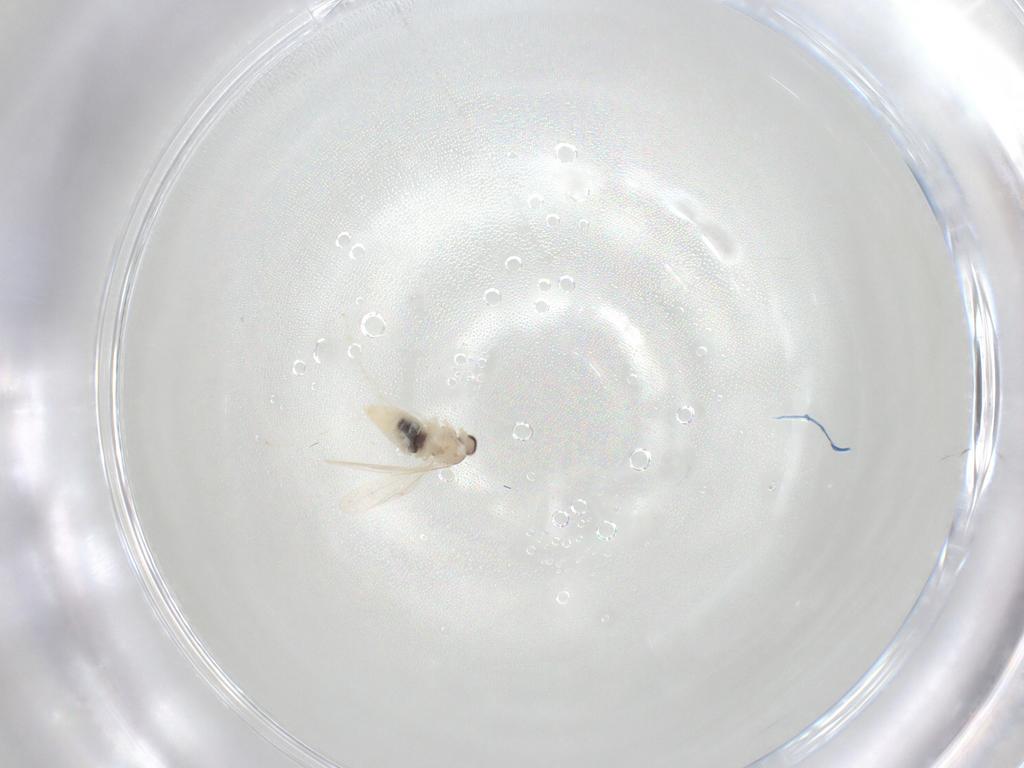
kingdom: Animalia
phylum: Arthropoda
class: Insecta
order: Diptera
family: Cecidomyiidae
